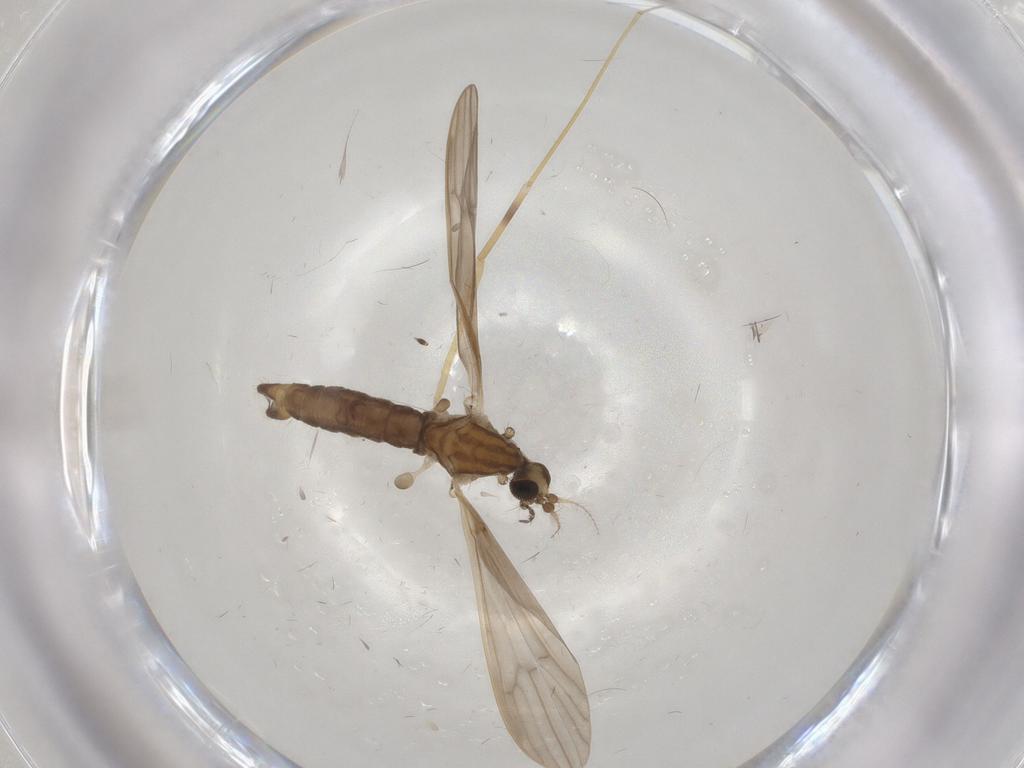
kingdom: Animalia
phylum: Arthropoda
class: Insecta
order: Diptera
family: Limoniidae
